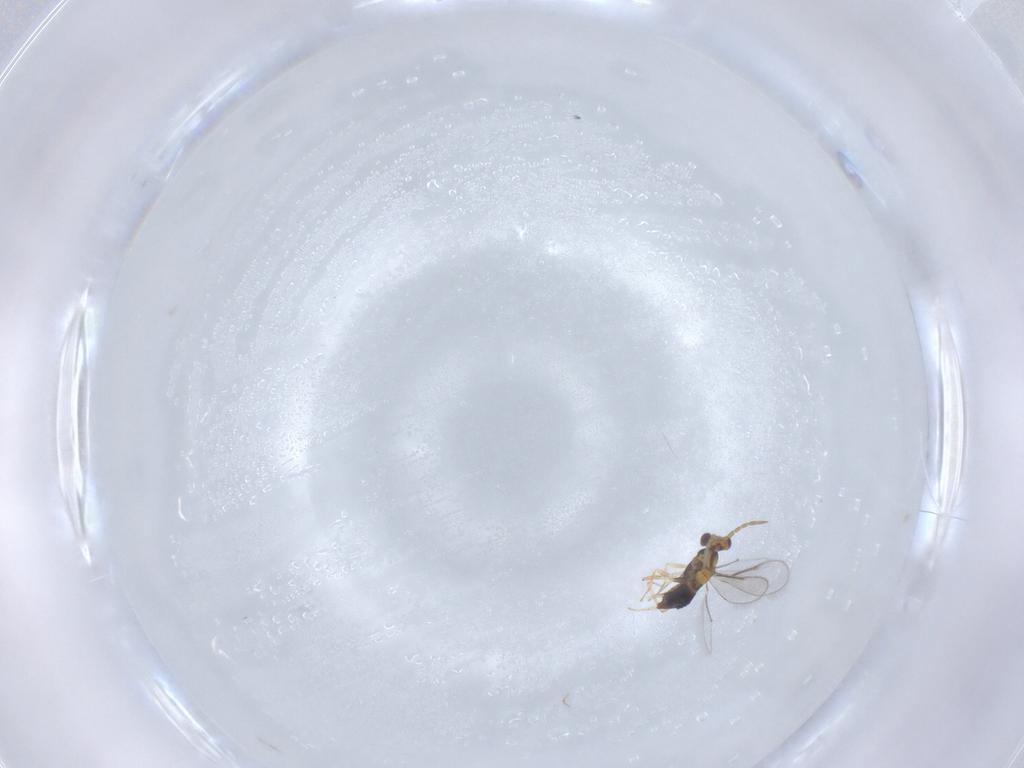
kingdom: Animalia
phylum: Arthropoda
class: Insecta
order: Hymenoptera
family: Aphelinidae
